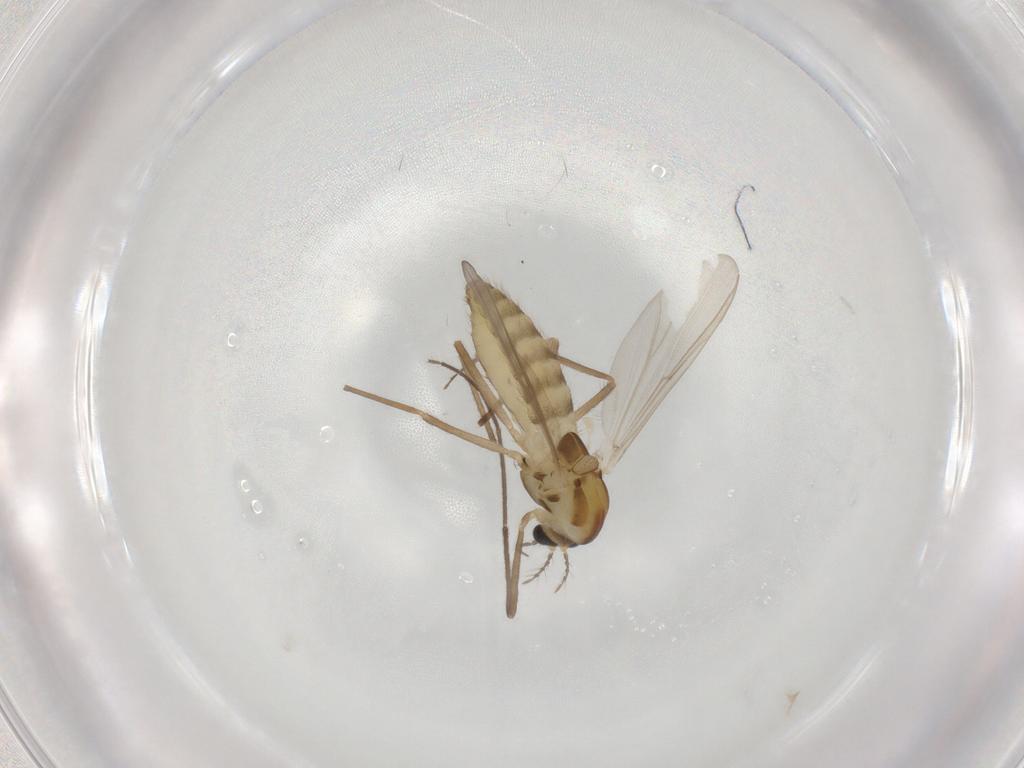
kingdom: Animalia
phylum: Arthropoda
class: Insecta
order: Diptera
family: Chironomidae
